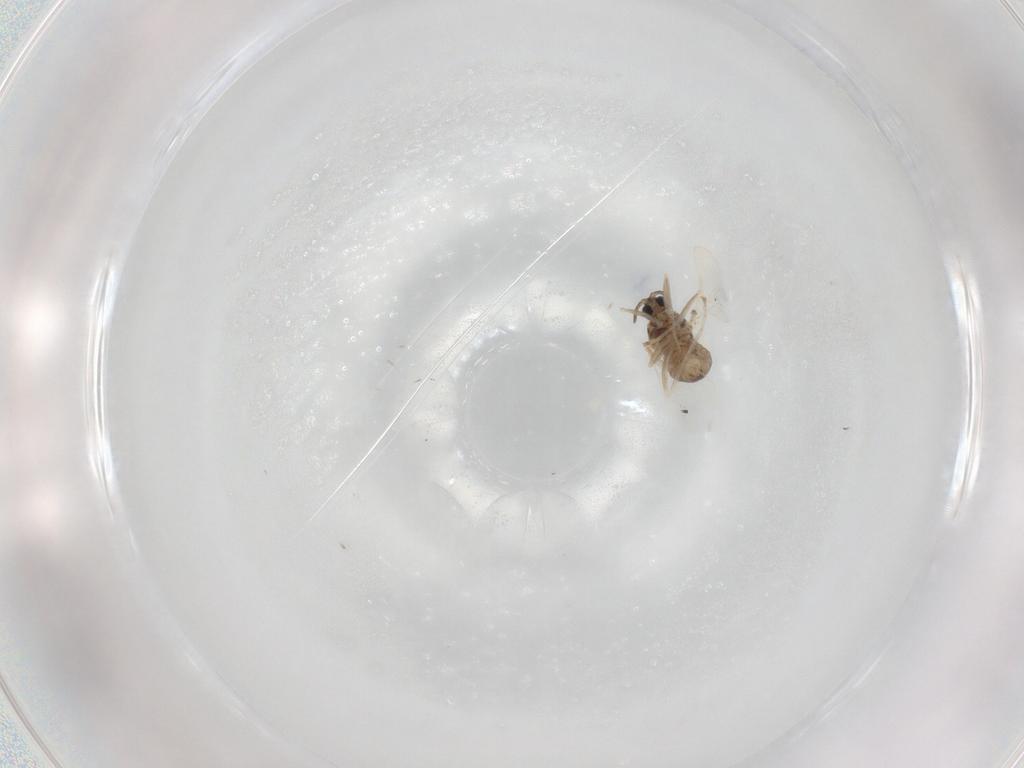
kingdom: Animalia
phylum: Arthropoda
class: Insecta
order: Diptera
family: Cecidomyiidae
